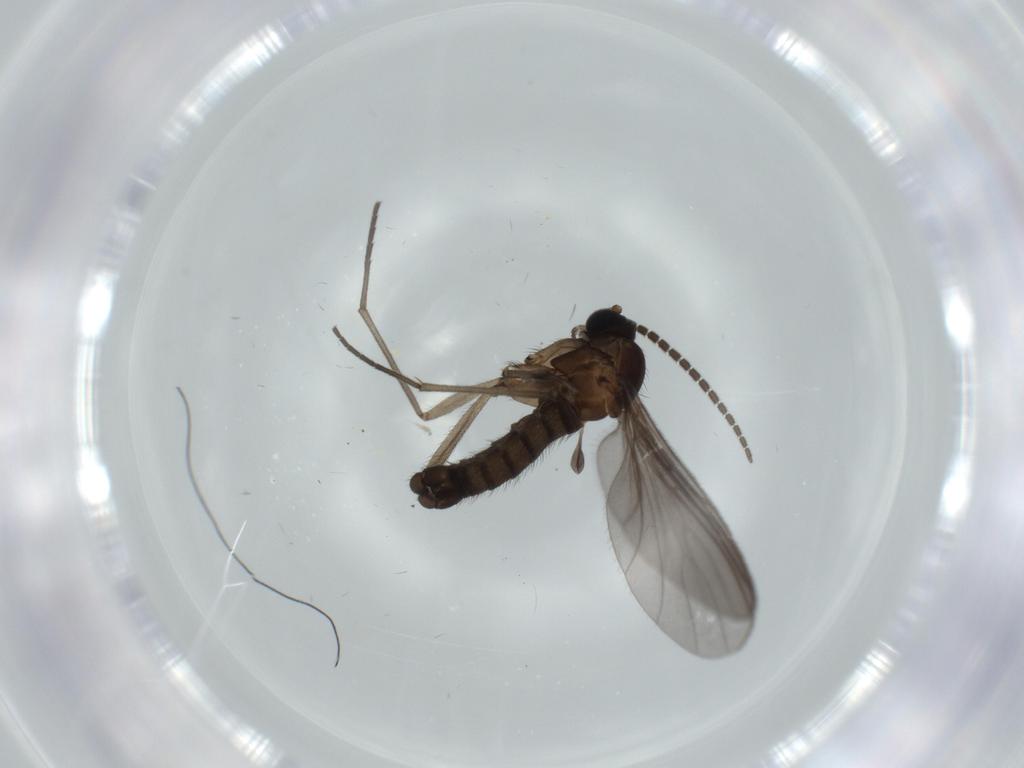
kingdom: Animalia
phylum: Arthropoda
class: Insecta
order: Diptera
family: Sciaridae
